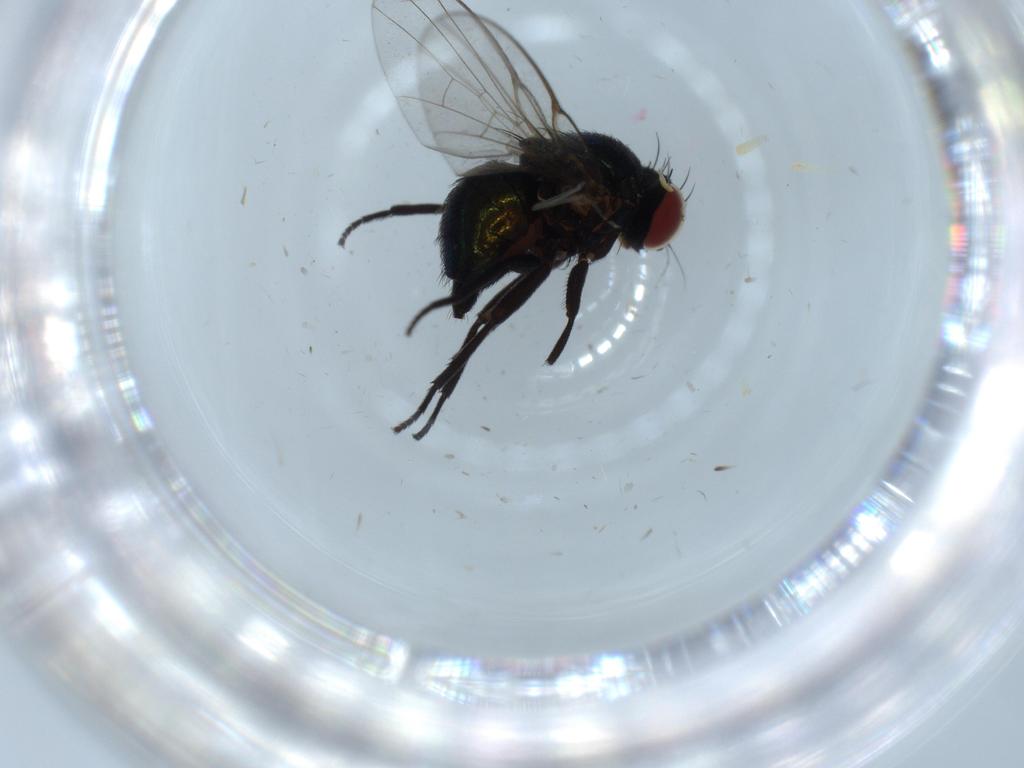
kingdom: Animalia
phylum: Arthropoda
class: Insecta
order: Diptera
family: Agromyzidae
